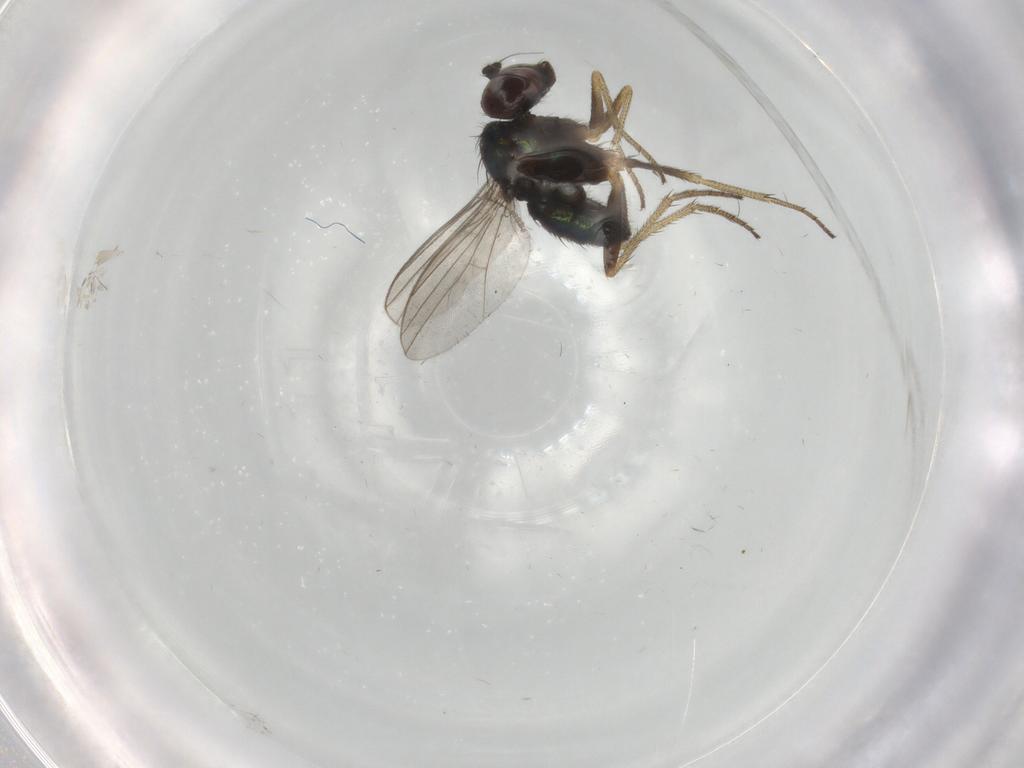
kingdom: Animalia
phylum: Arthropoda
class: Insecta
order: Diptera
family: Dolichopodidae
